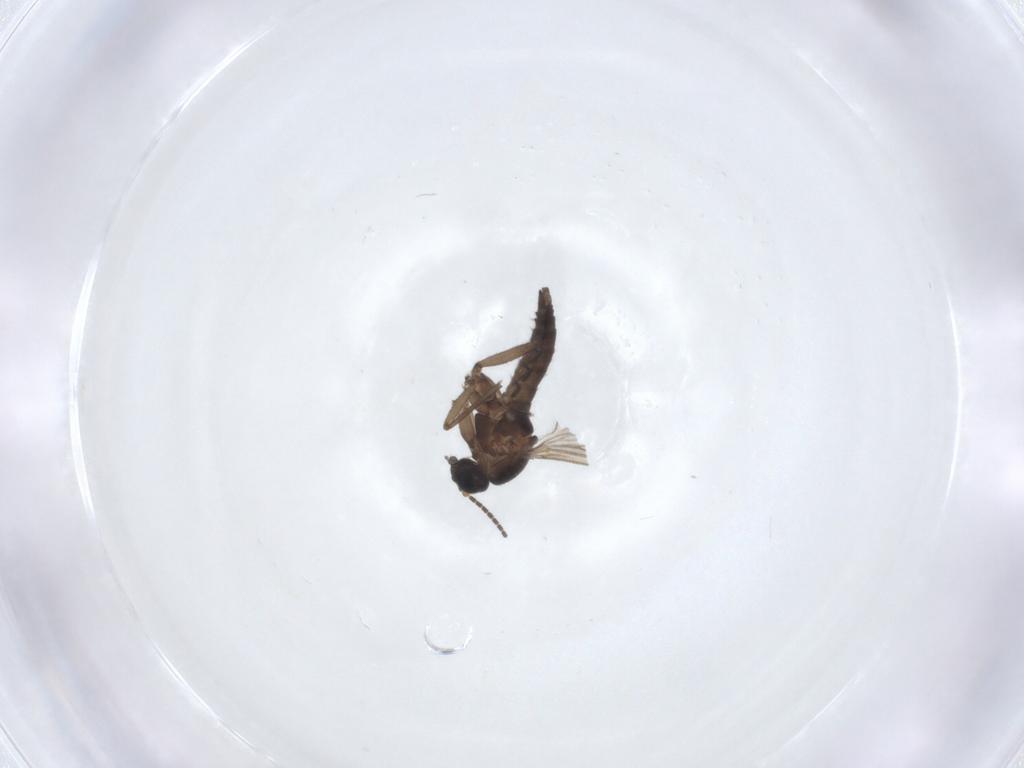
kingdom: Animalia
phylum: Arthropoda
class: Insecta
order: Diptera
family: Sciaridae
